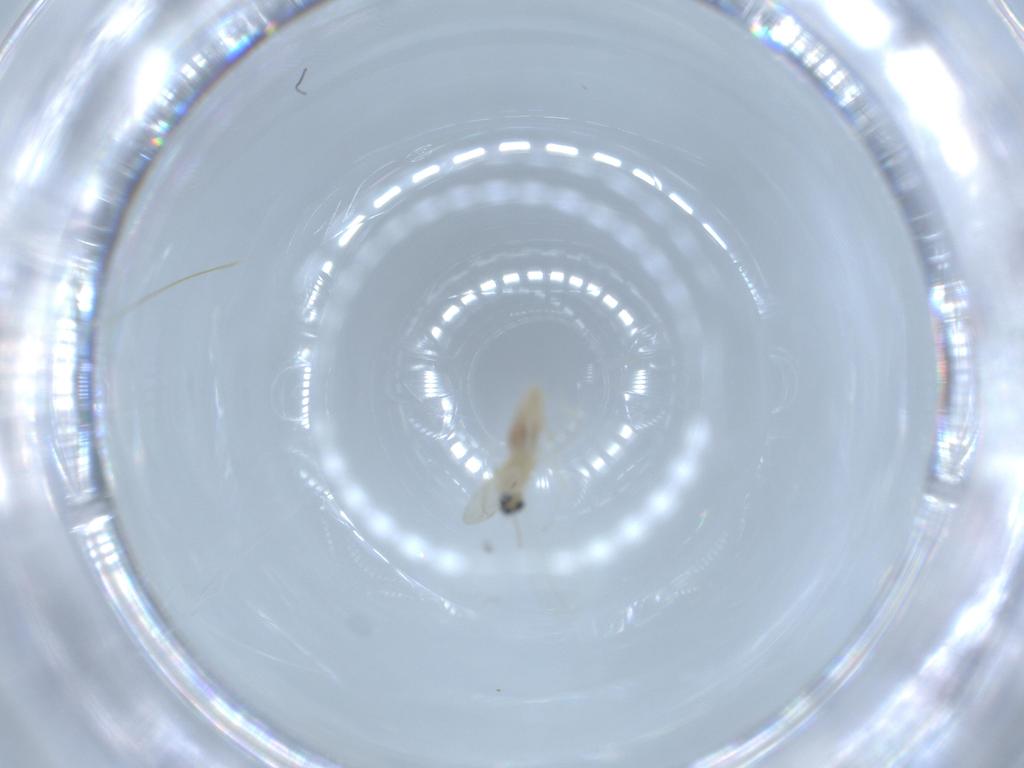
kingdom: Animalia
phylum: Arthropoda
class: Insecta
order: Diptera
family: Cecidomyiidae
